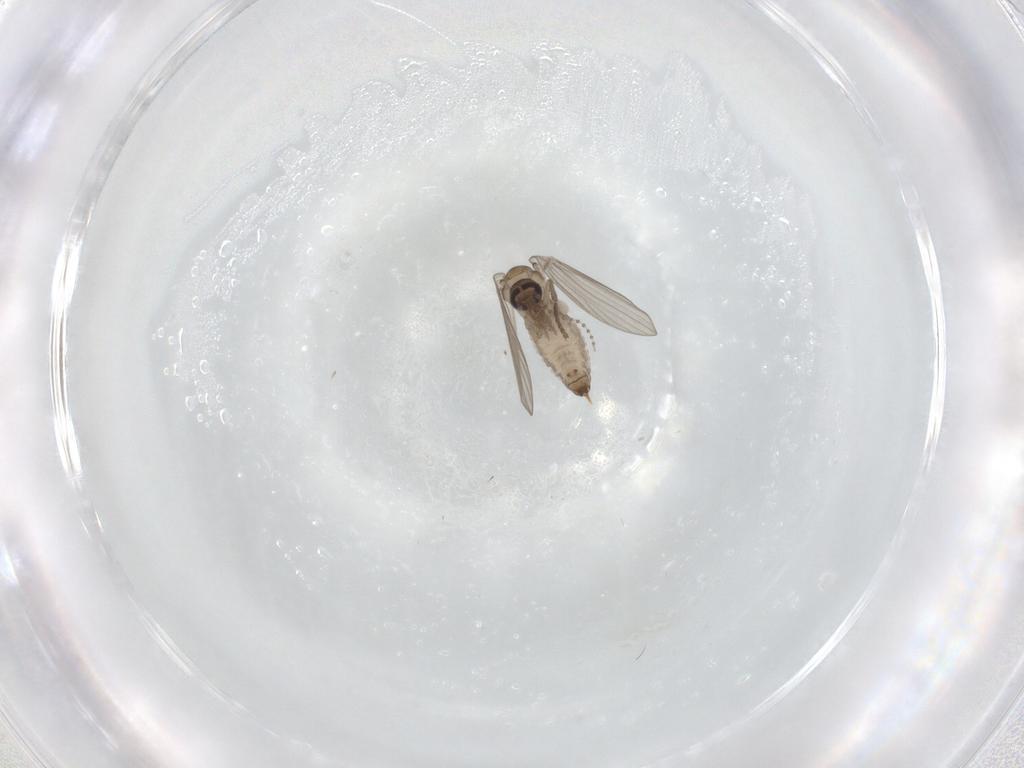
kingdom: Animalia
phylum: Arthropoda
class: Insecta
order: Diptera
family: Psychodidae
